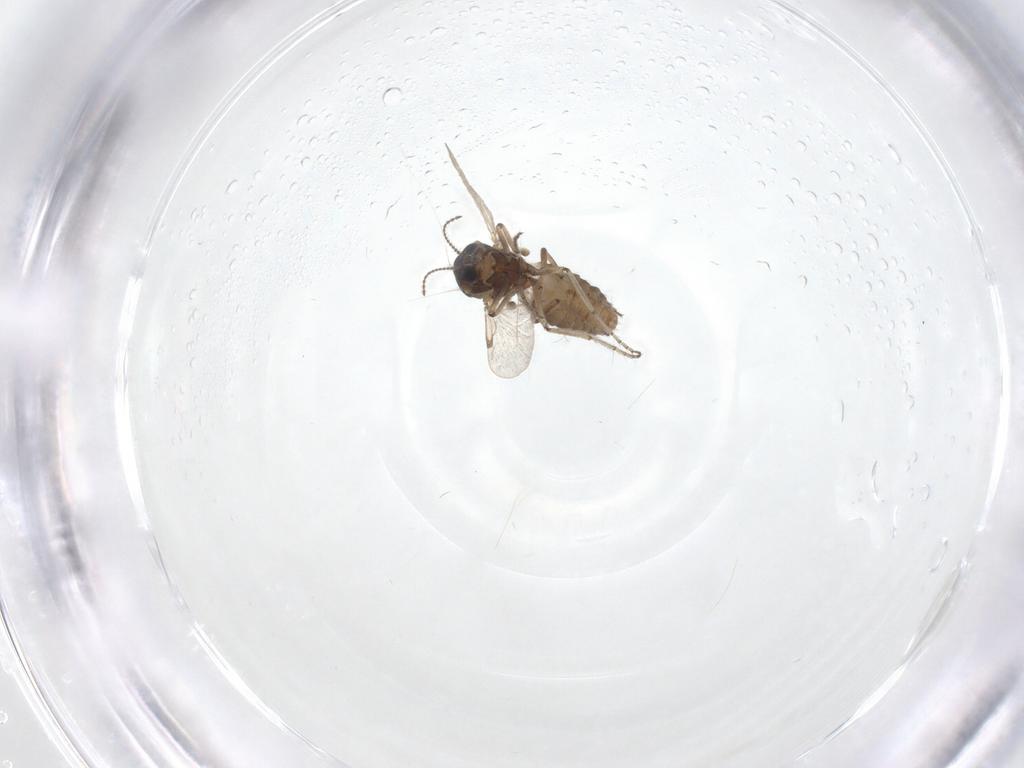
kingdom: Animalia
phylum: Arthropoda
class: Insecta
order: Diptera
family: Ceratopogonidae
